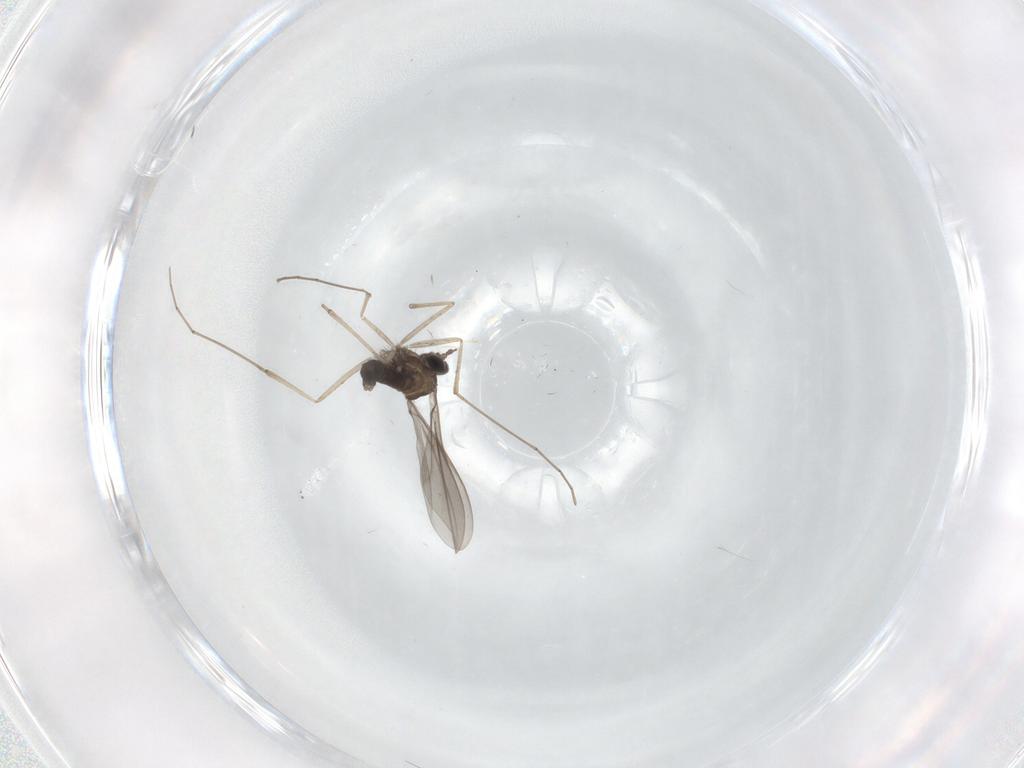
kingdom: Animalia
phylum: Arthropoda
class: Insecta
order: Diptera
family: Cecidomyiidae
